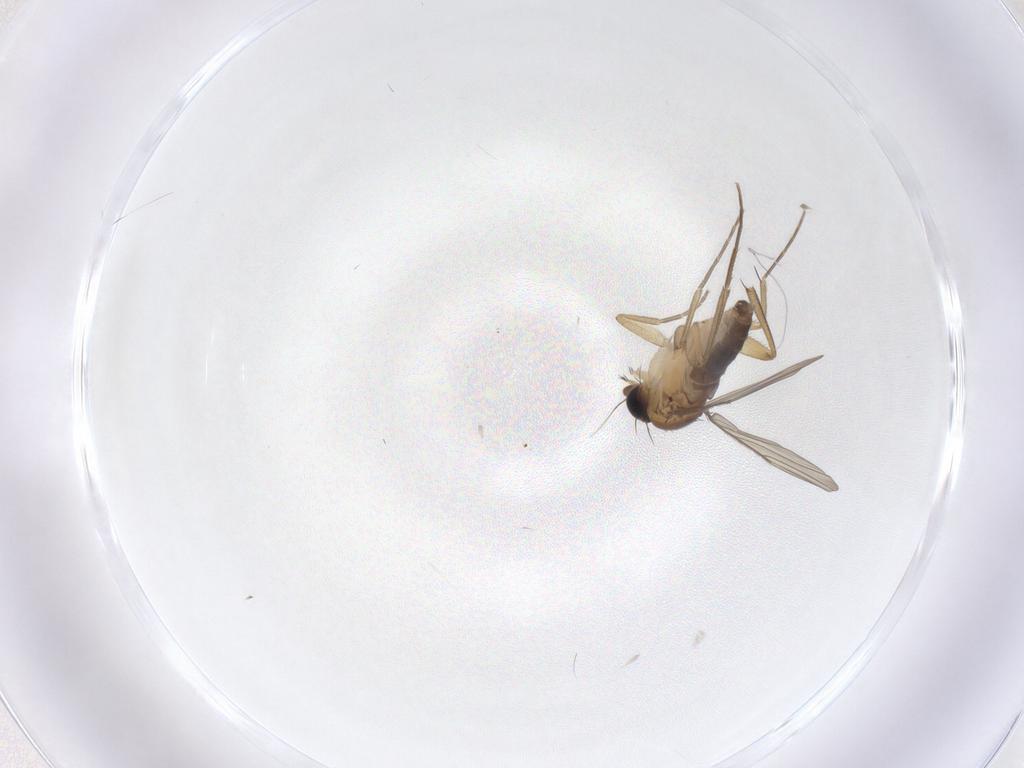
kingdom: Animalia
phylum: Arthropoda
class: Insecta
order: Diptera
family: Phoridae
